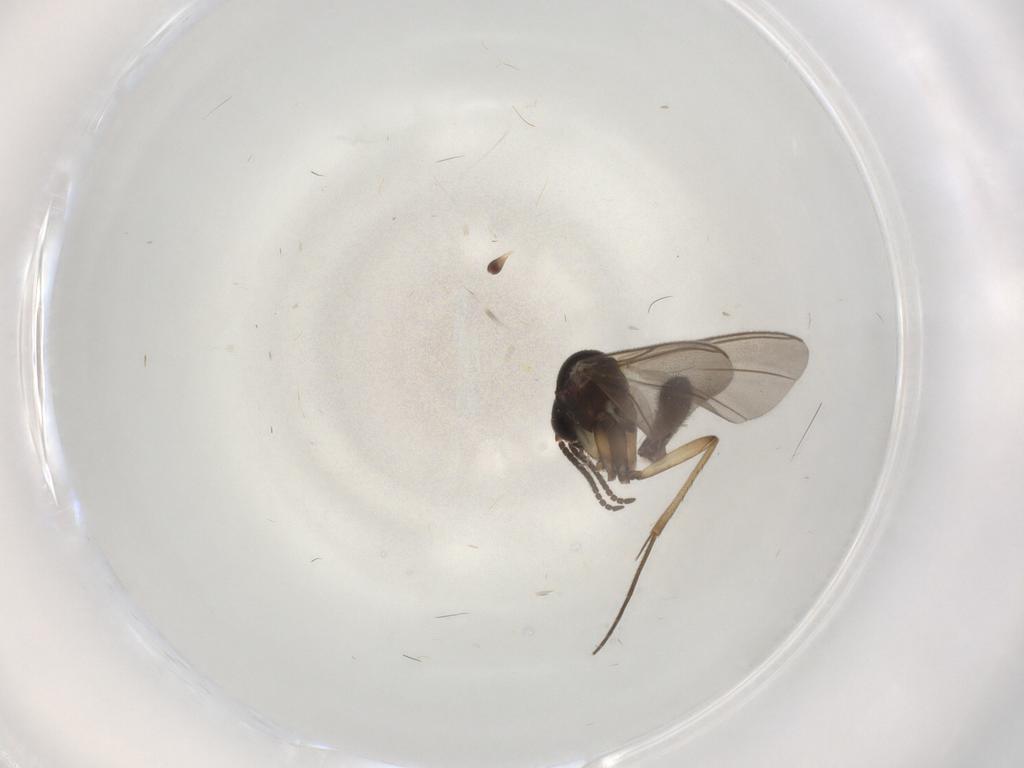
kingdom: Animalia
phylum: Arthropoda
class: Insecta
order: Diptera
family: Mycetophilidae
